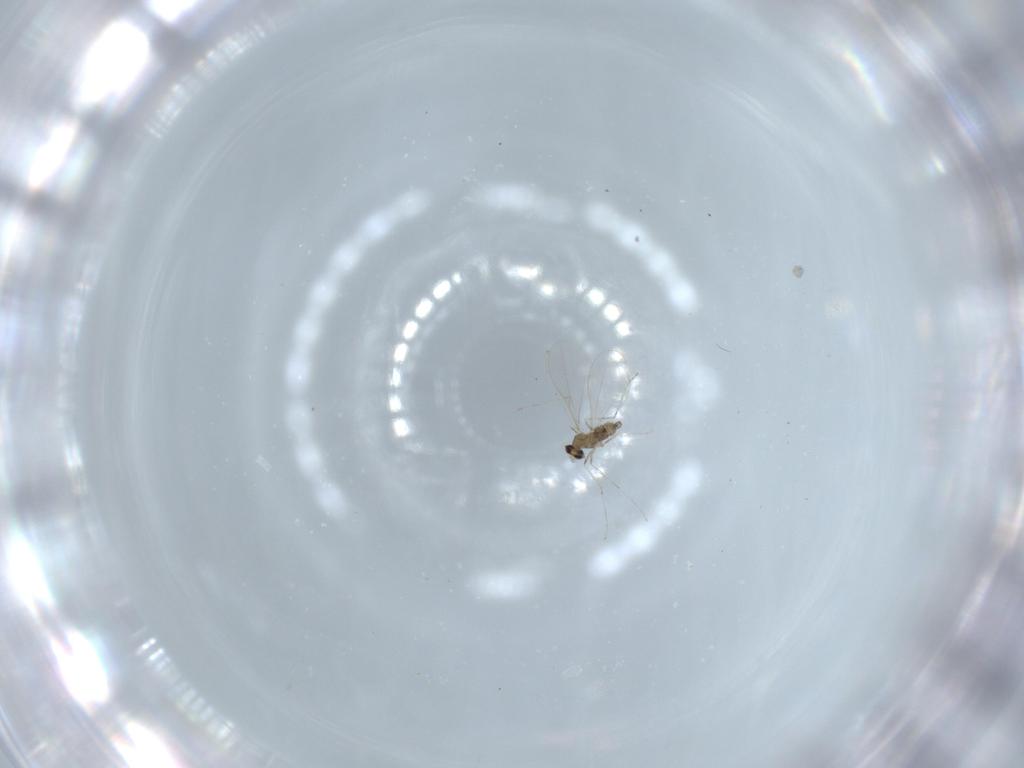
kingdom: Animalia
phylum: Arthropoda
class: Insecta
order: Diptera
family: Cecidomyiidae
